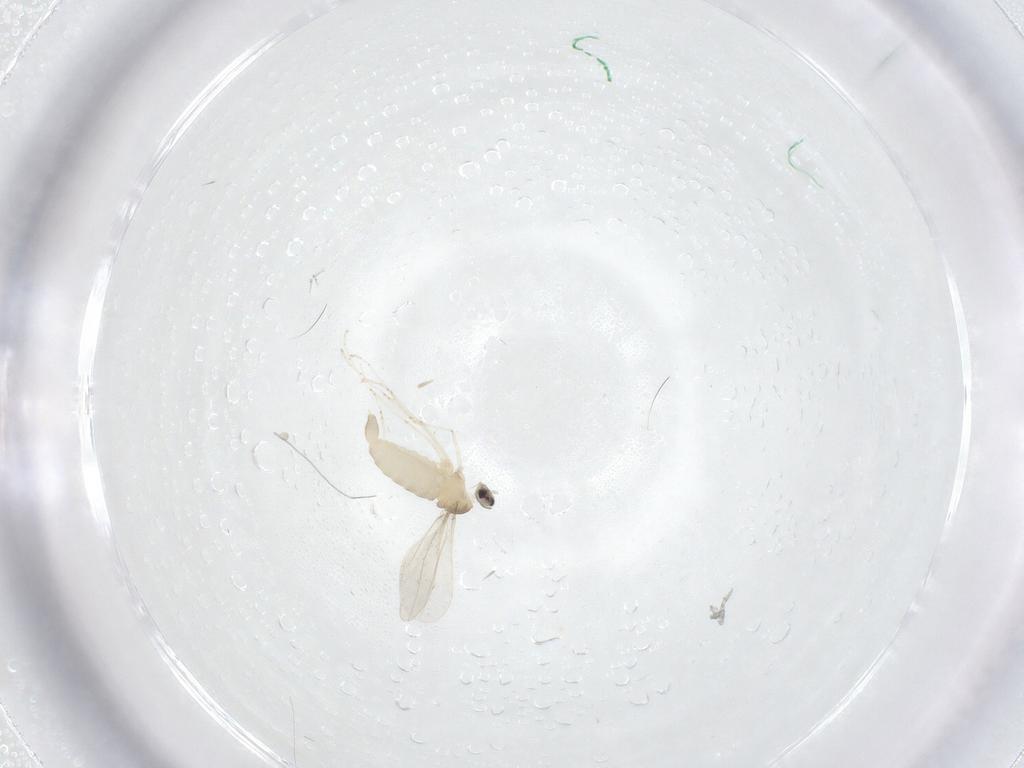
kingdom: Animalia
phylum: Arthropoda
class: Insecta
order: Diptera
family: Cecidomyiidae
